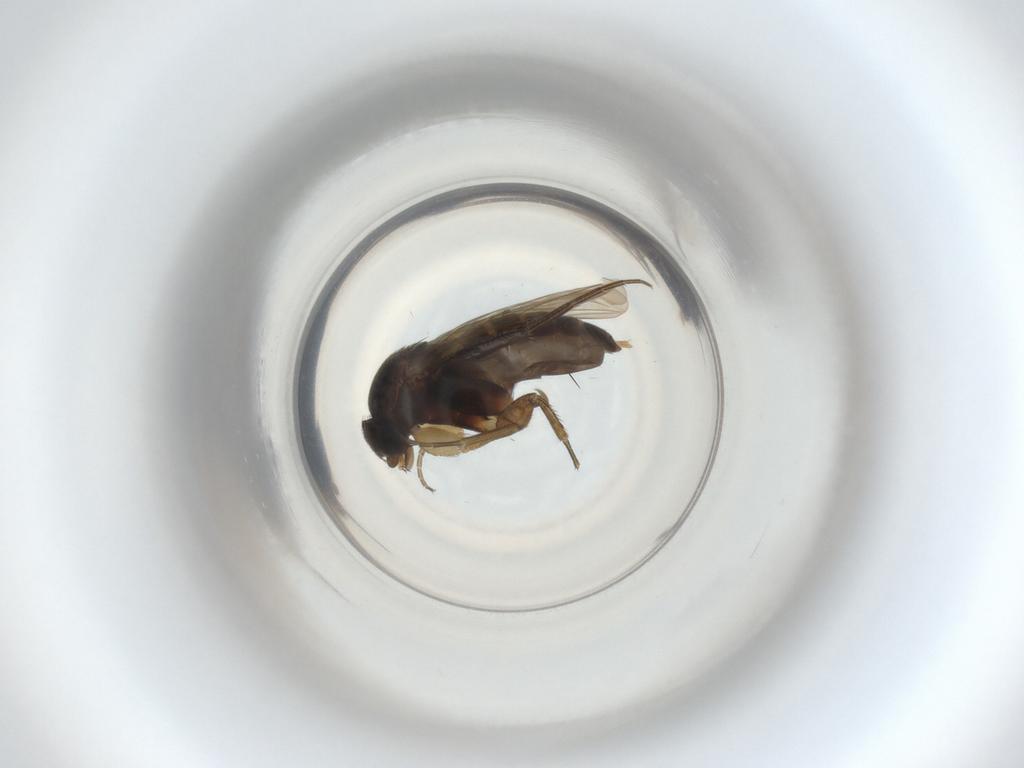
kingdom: Animalia
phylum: Arthropoda
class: Insecta
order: Diptera
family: Phoridae
